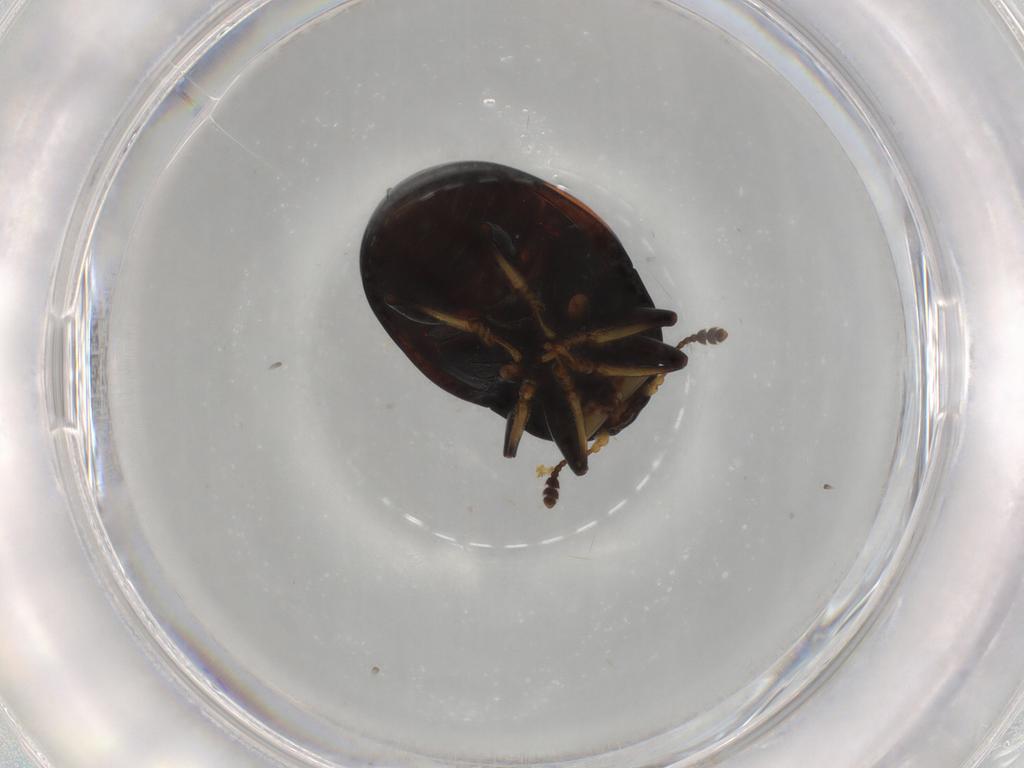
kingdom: Animalia
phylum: Arthropoda
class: Insecta
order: Coleoptera
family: Erotylidae
